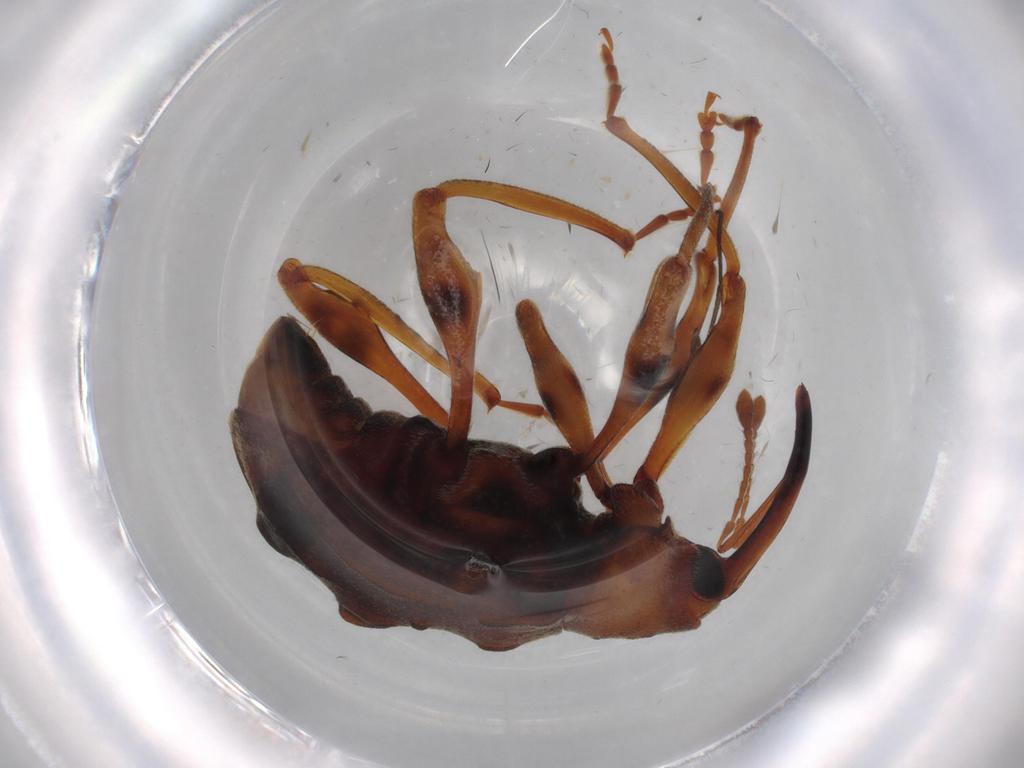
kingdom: Animalia
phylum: Arthropoda
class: Insecta
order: Coleoptera
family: Curculionidae
